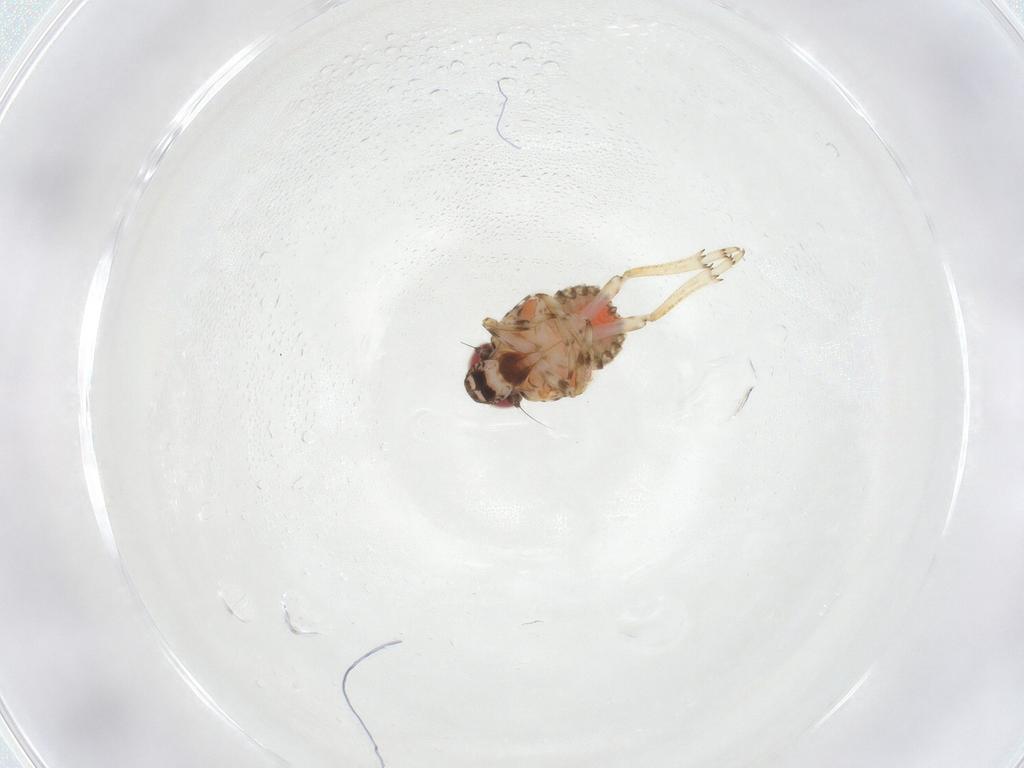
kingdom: Animalia
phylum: Arthropoda
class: Insecta
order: Hemiptera
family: Issidae
